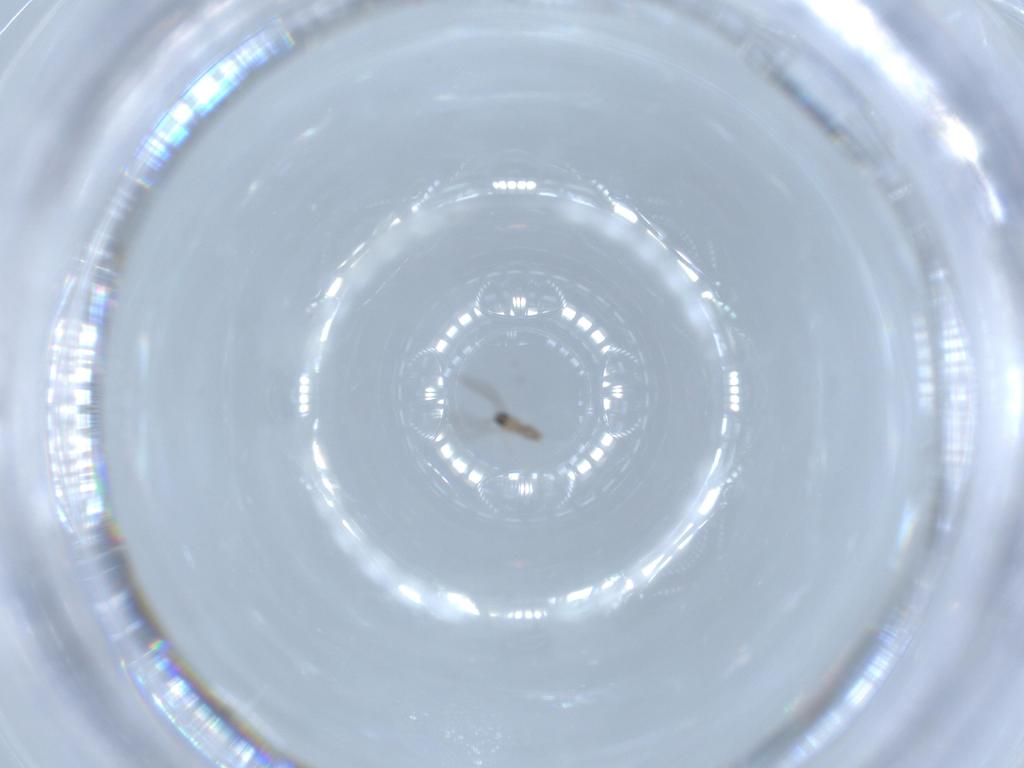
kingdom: Animalia
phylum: Arthropoda
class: Insecta
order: Diptera
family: Cecidomyiidae
